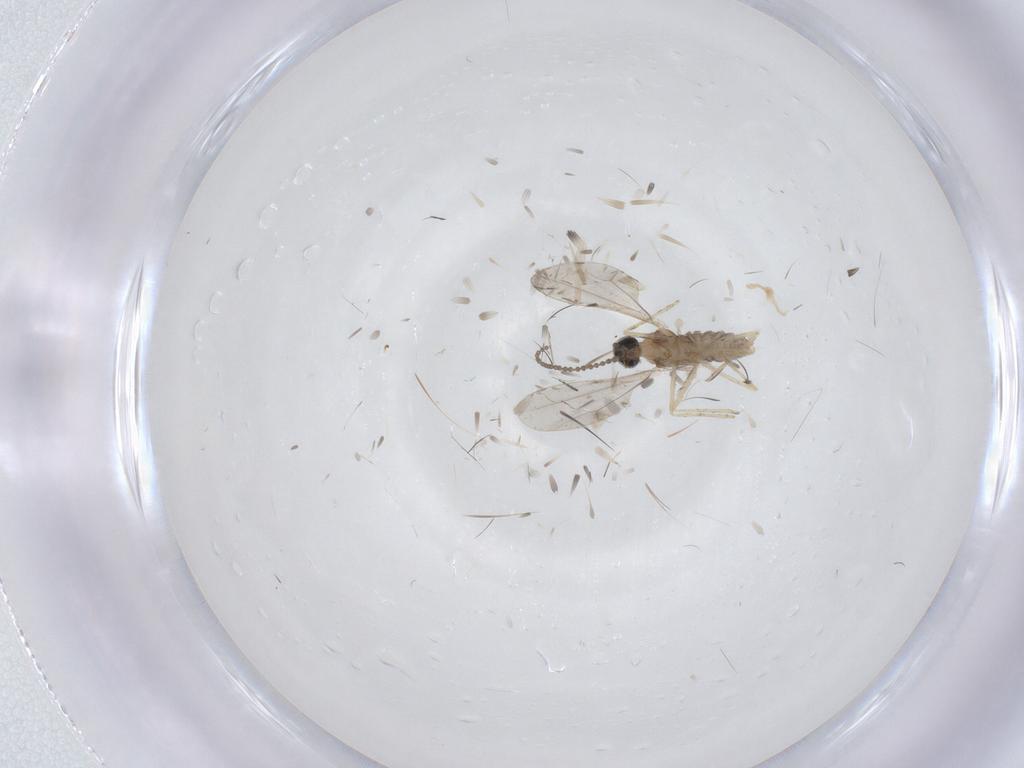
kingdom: Animalia
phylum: Arthropoda
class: Insecta
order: Diptera
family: Cecidomyiidae
